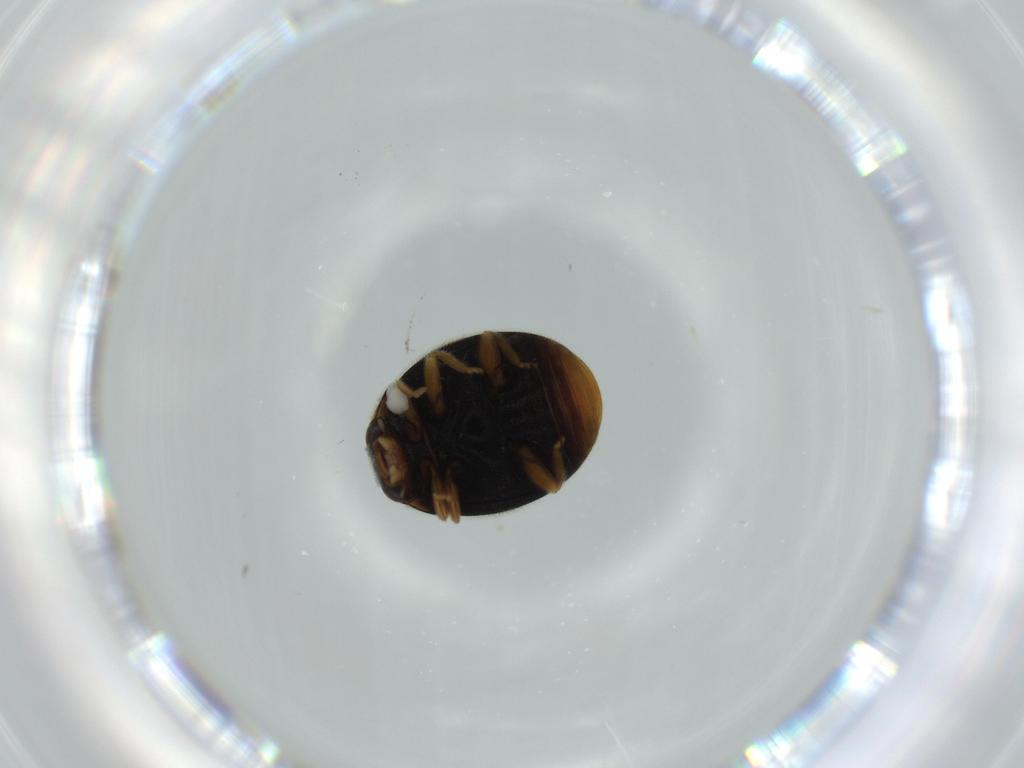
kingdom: Animalia
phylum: Arthropoda
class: Insecta
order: Coleoptera
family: Coccinellidae
